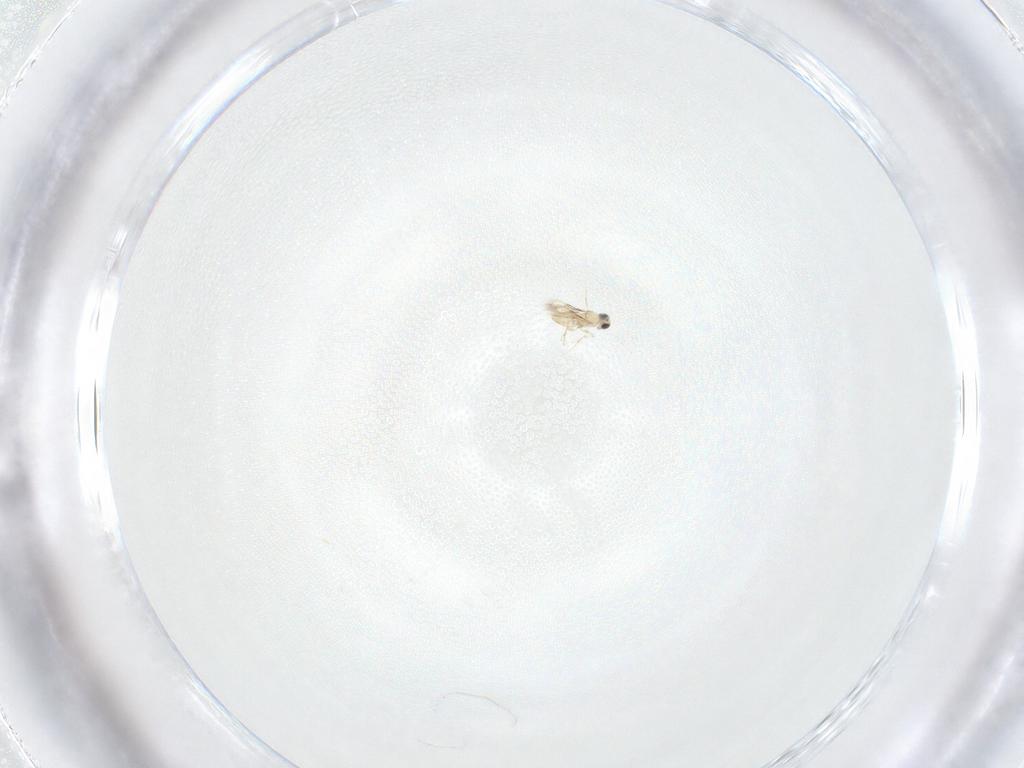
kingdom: Animalia
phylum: Arthropoda
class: Insecta
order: Hymenoptera
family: Trichogrammatidae
